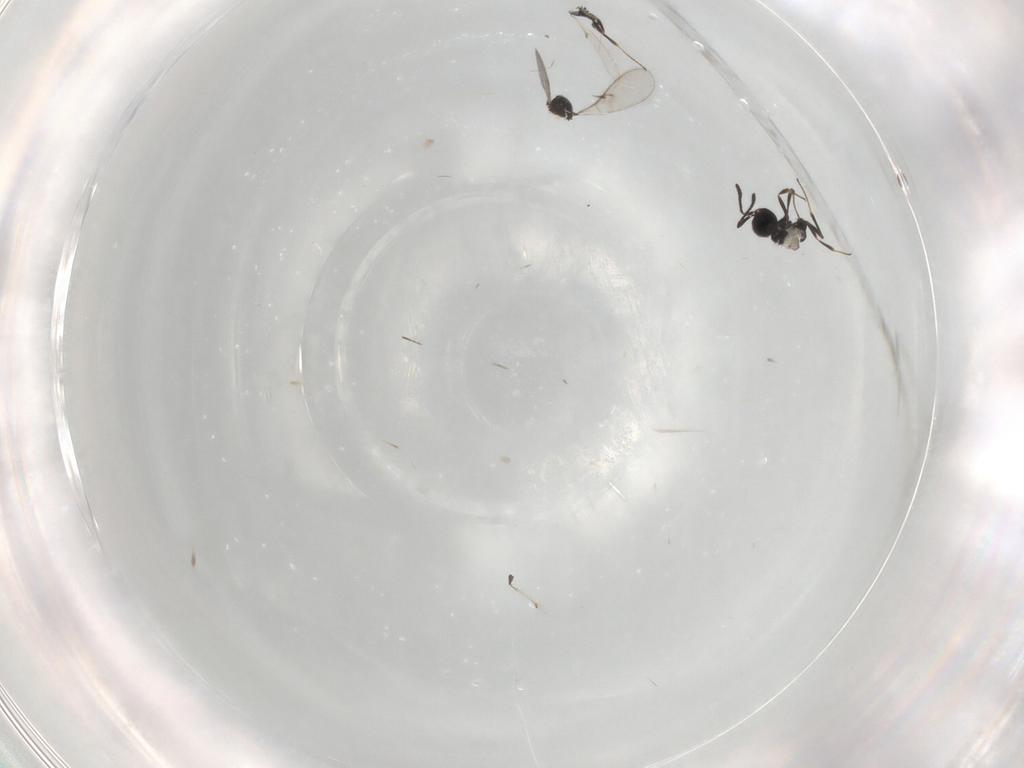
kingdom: Animalia
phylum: Arthropoda
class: Insecta
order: Hymenoptera
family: Scelionidae
